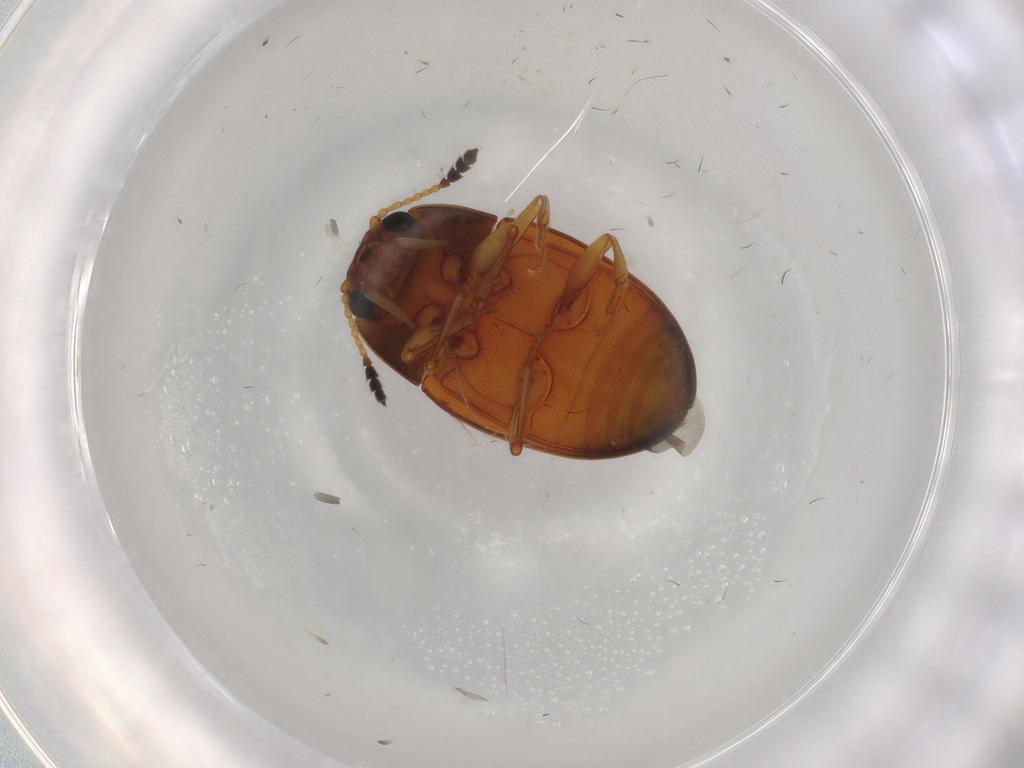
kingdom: Animalia
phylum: Arthropoda
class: Insecta
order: Coleoptera
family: Erotylidae
